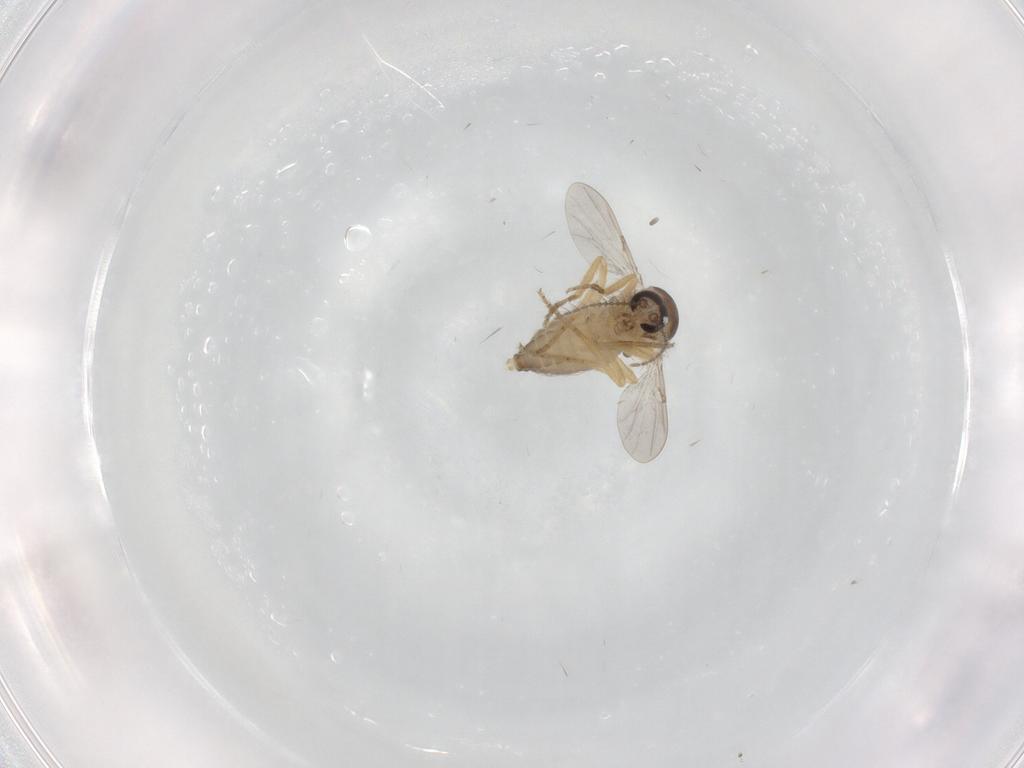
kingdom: Animalia
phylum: Arthropoda
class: Insecta
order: Diptera
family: Ceratopogonidae
